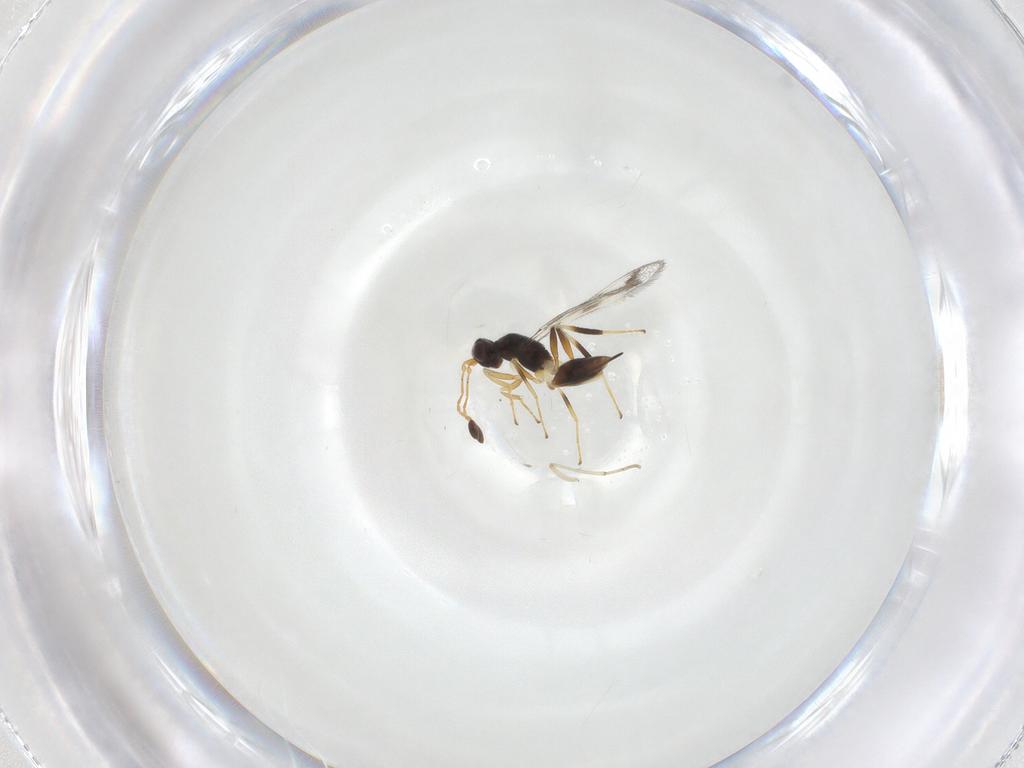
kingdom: Animalia
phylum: Arthropoda
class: Insecta
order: Hymenoptera
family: Mymaridae
